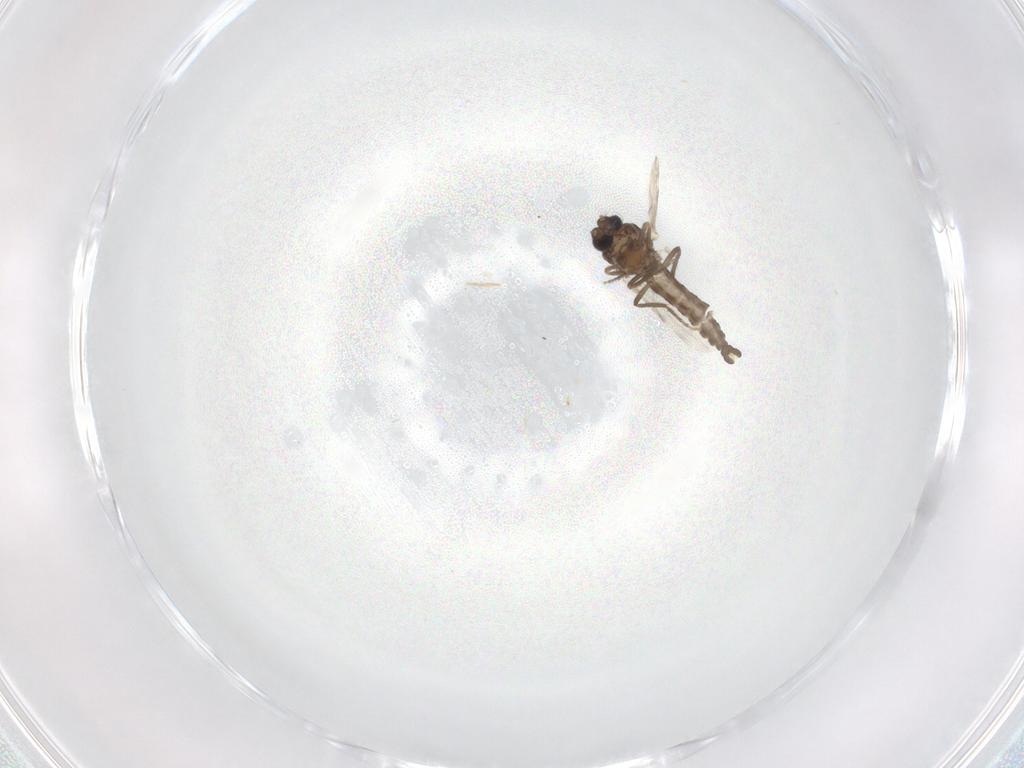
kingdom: Animalia
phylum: Arthropoda
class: Insecta
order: Diptera
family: Ceratopogonidae
